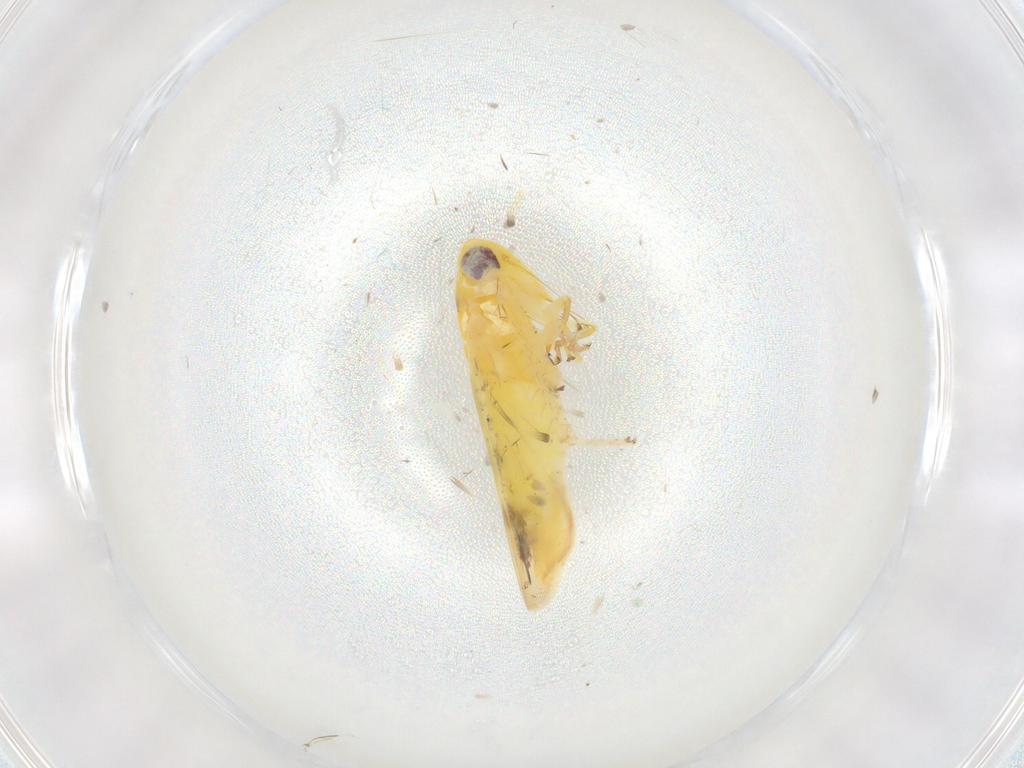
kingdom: Animalia
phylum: Arthropoda
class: Insecta
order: Hemiptera
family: Cicadellidae
